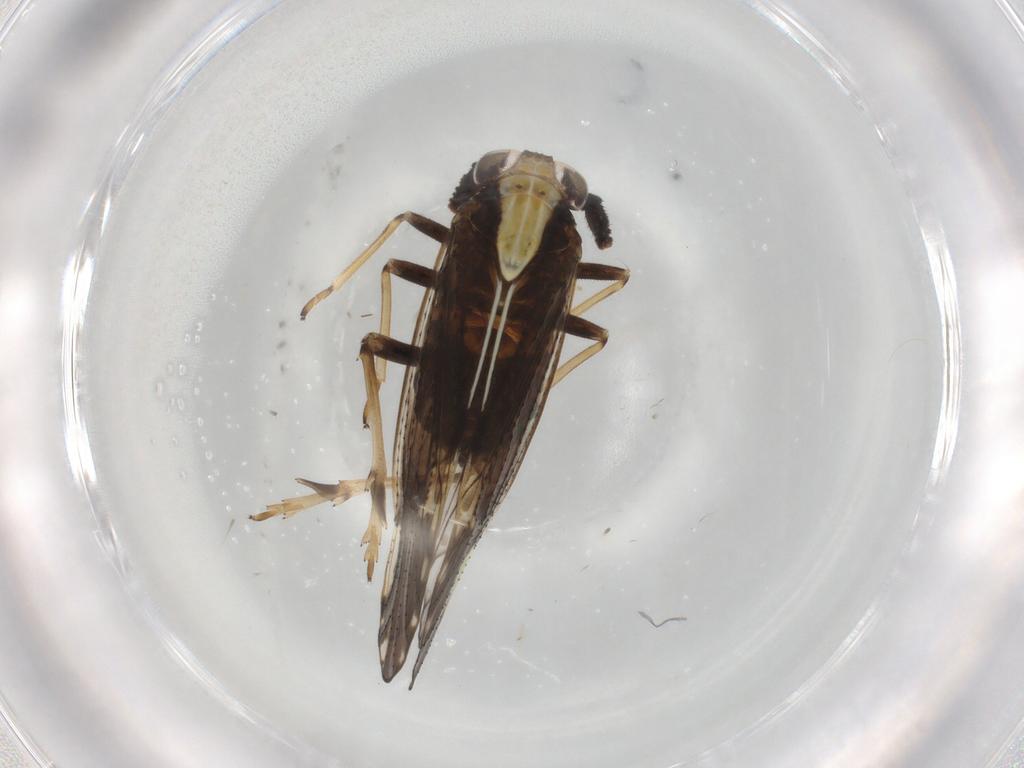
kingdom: Animalia
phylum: Arthropoda
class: Insecta
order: Hemiptera
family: Delphacidae
